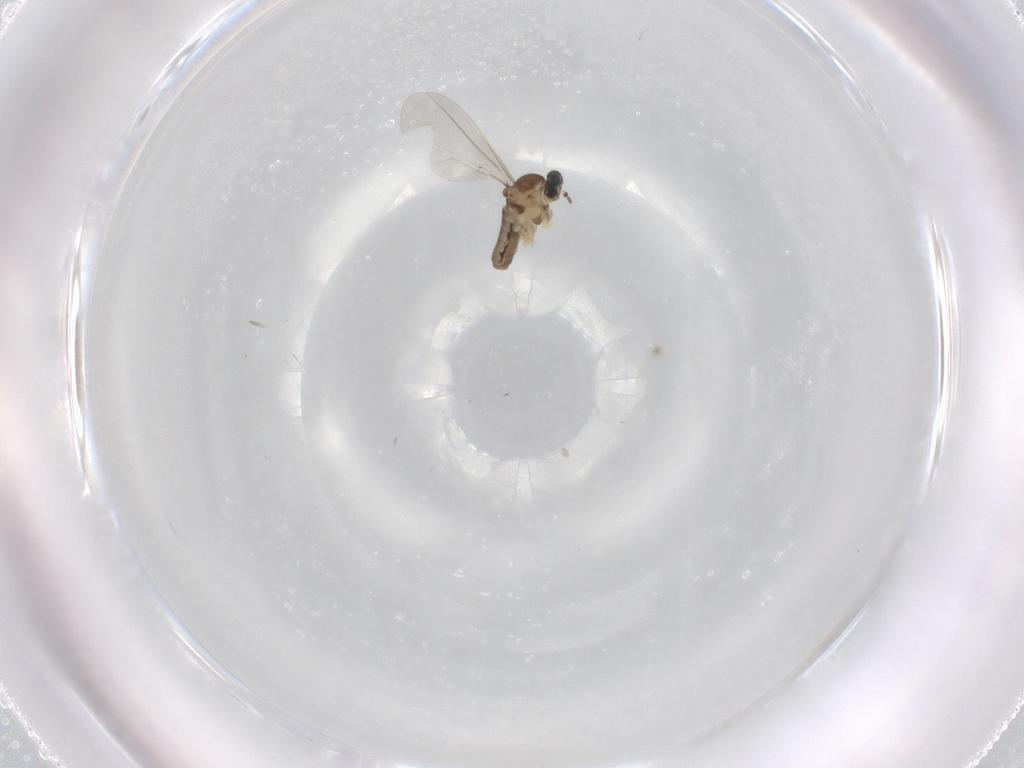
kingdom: Animalia
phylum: Arthropoda
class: Insecta
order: Diptera
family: Cecidomyiidae
